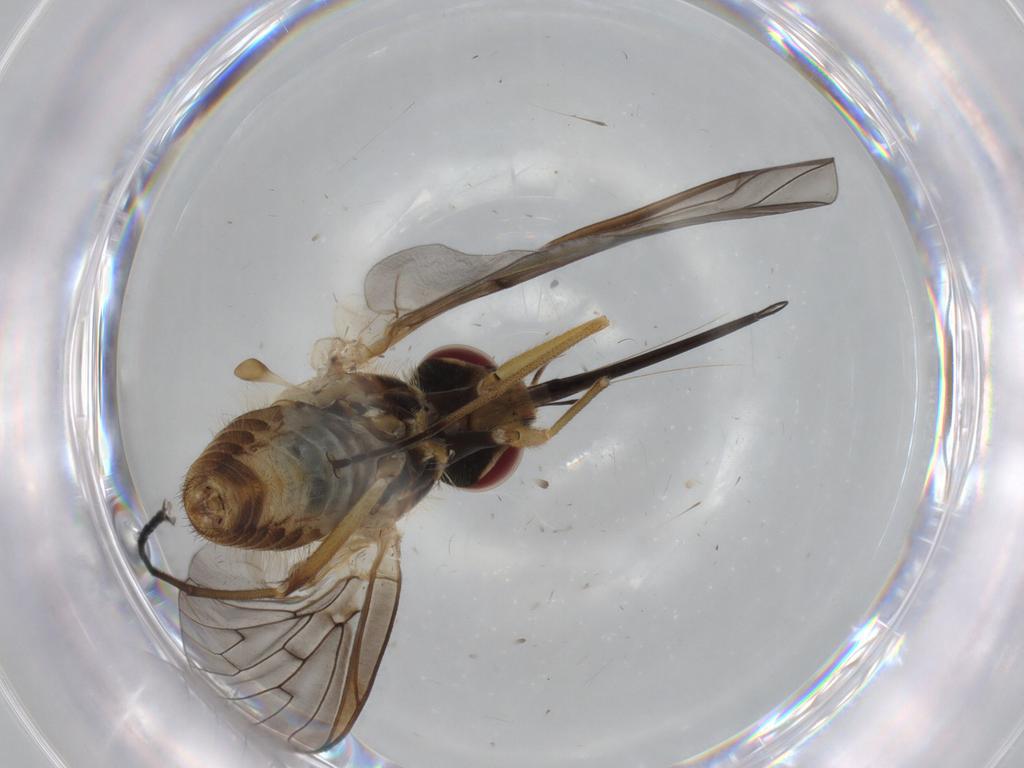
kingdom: Animalia
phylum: Arthropoda
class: Insecta
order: Diptera
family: Bombyliidae
